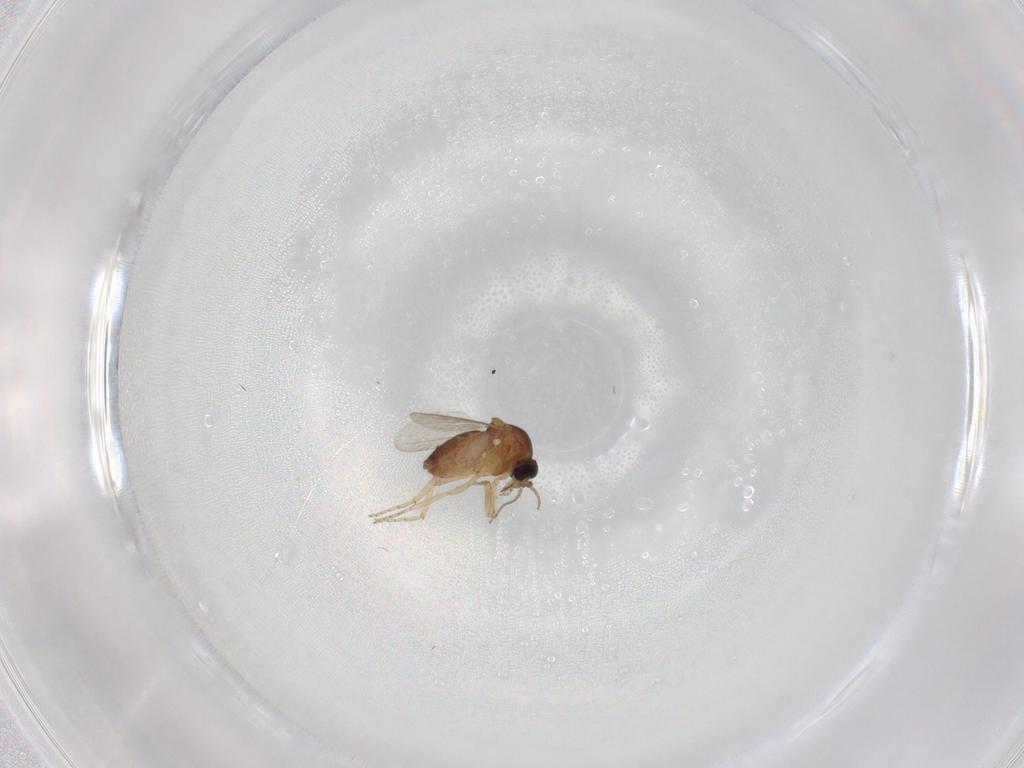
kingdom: Animalia
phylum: Arthropoda
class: Insecta
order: Diptera
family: Ceratopogonidae
